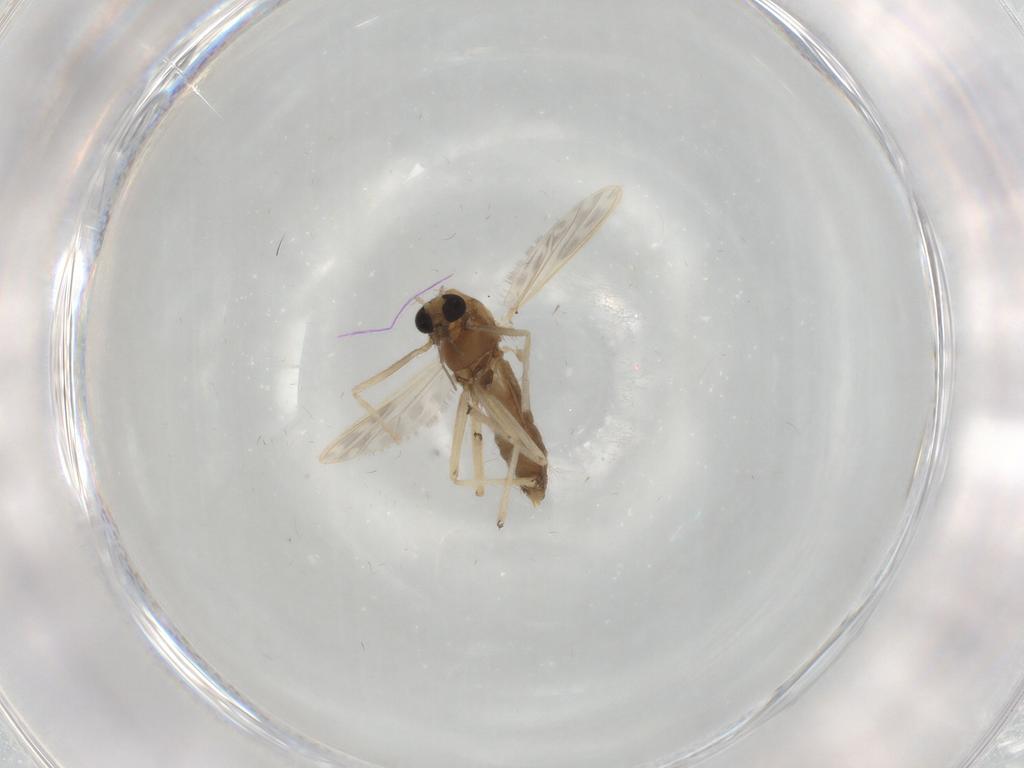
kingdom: Animalia
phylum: Arthropoda
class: Insecta
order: Diptera
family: Chironomidae
